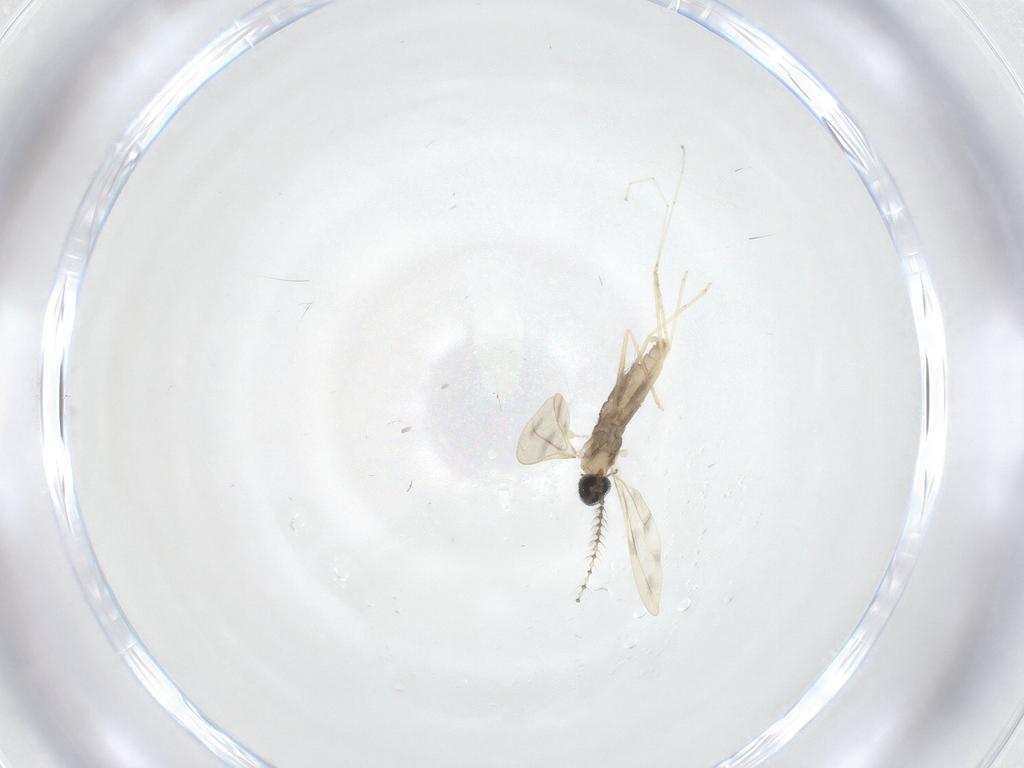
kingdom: Animalia
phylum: Arthropoda
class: Insecta
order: Diptera
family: Cecidomyiidae
